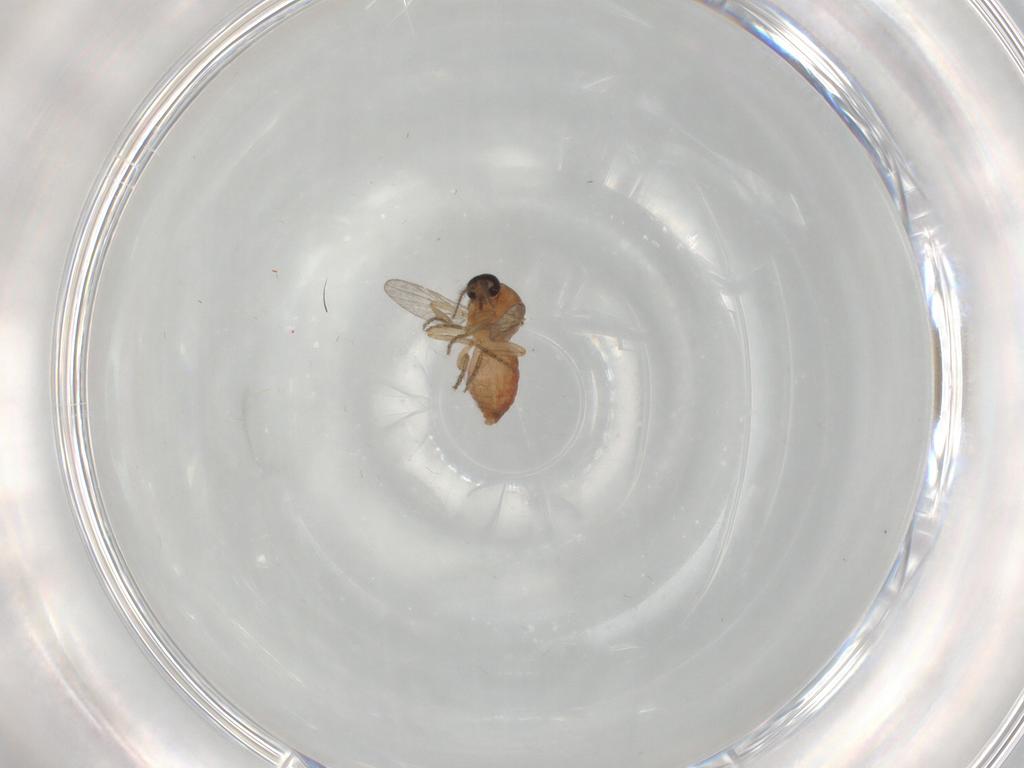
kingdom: Animalia
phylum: Arthropoda
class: Insecta
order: Diptera
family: Ceratopogonidae
